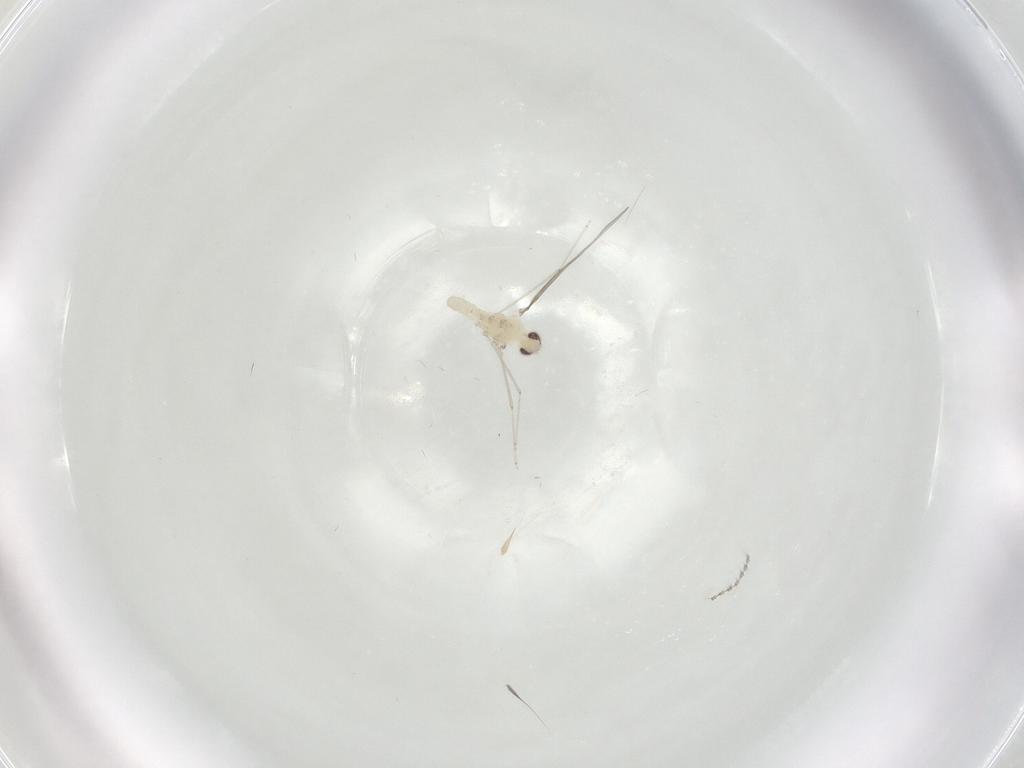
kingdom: Animalia
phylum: Arthropoda
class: Insecta
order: Diptera
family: Cecidomyiidae
